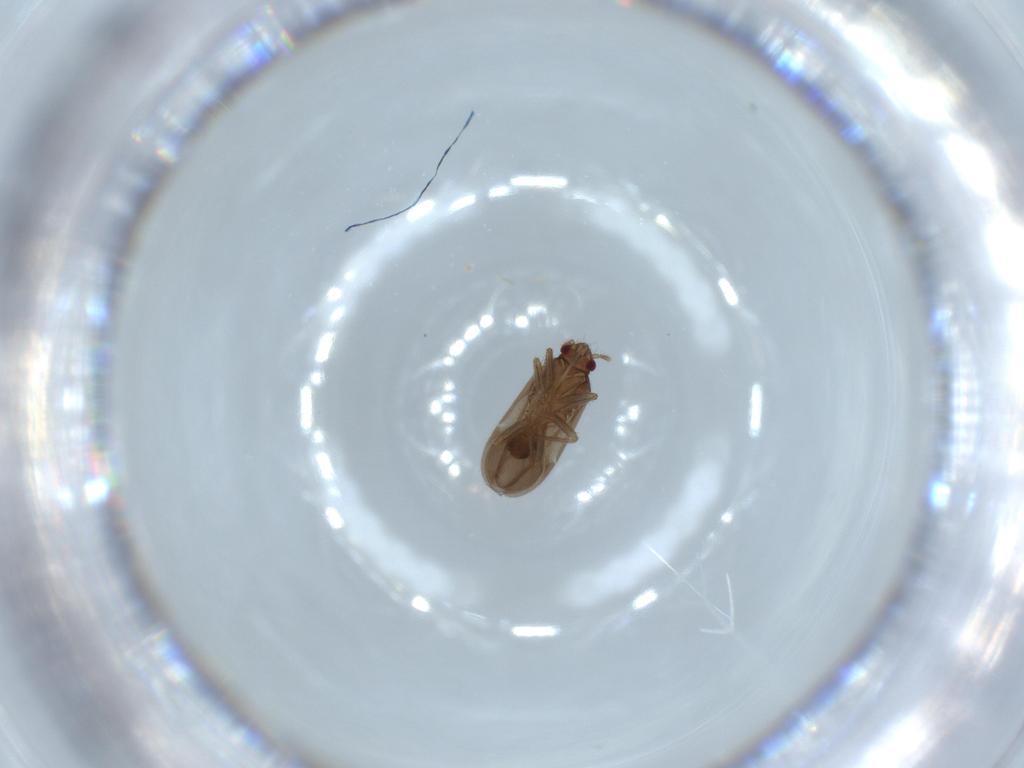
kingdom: Animalia
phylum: Arthropoda
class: Insecta
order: Hemiptera
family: Ceratocombidae
